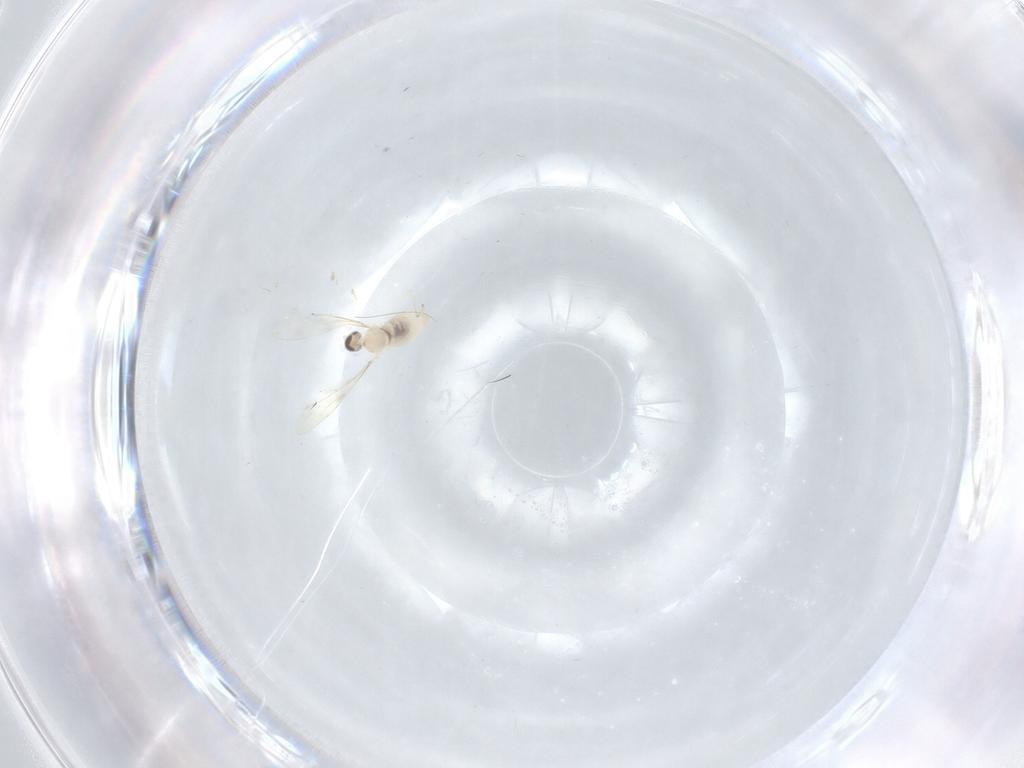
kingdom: Animalia
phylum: Arthropoda
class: Insecta
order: Diptera
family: Cecidomyiidae
